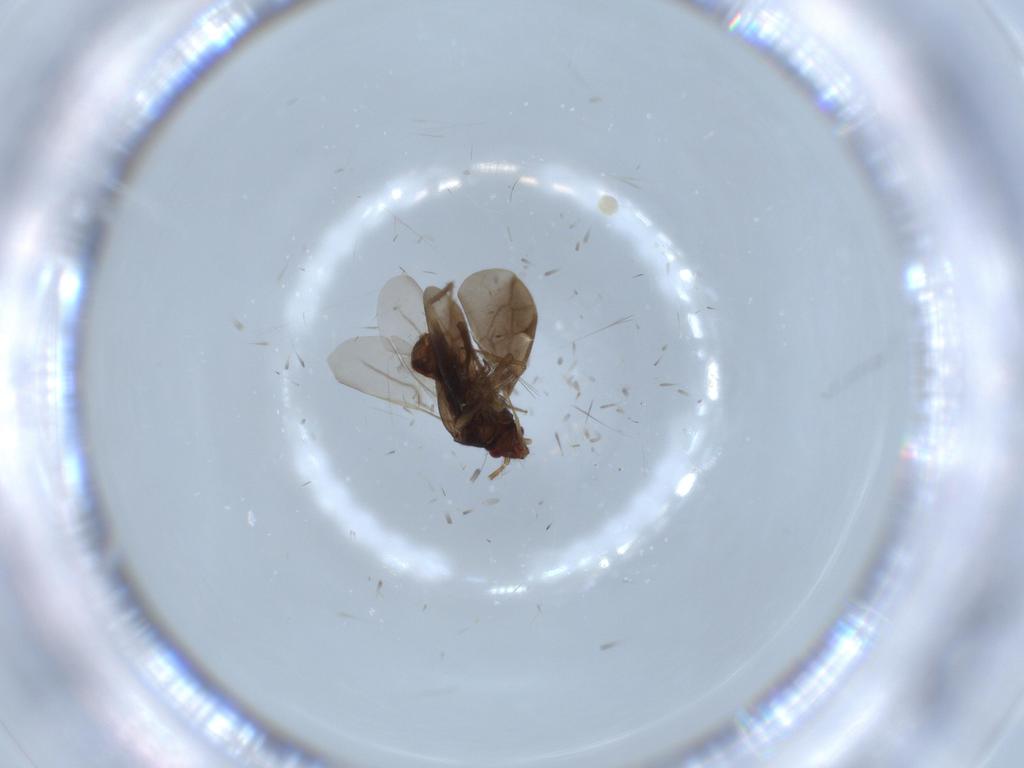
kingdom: Animalia
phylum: Arthropoda
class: Insecta
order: Hemiptera
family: Ceratocombidae
